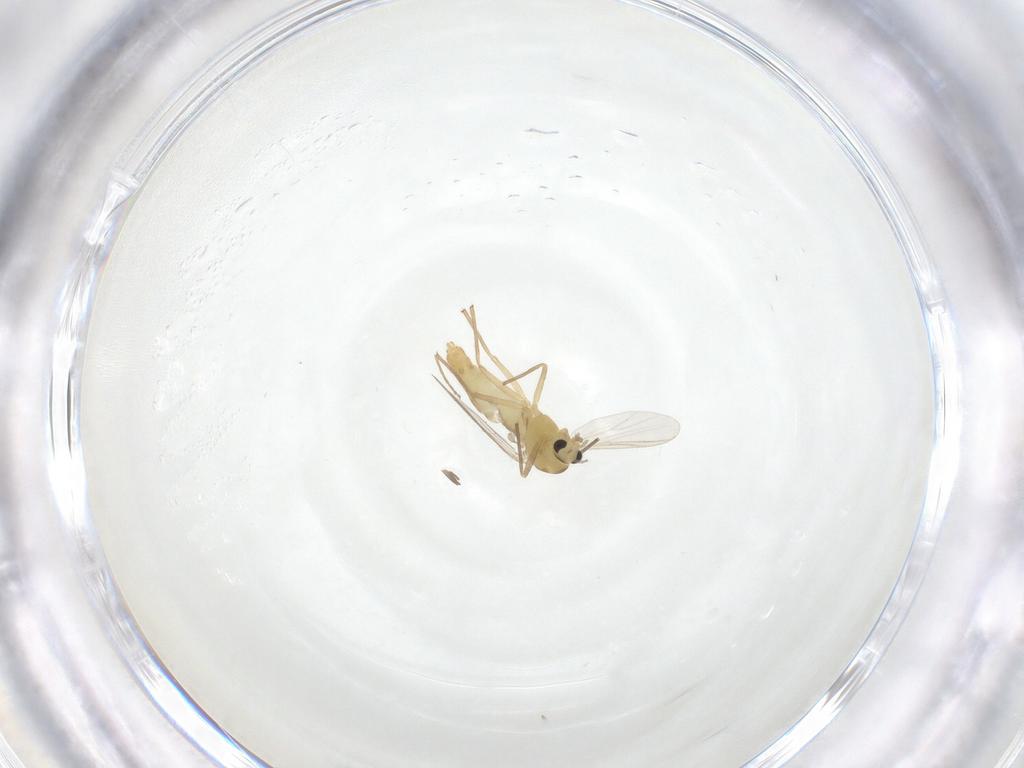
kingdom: Animalia
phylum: Arthropoda
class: Insecta
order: Diptera
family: Chironomidae
